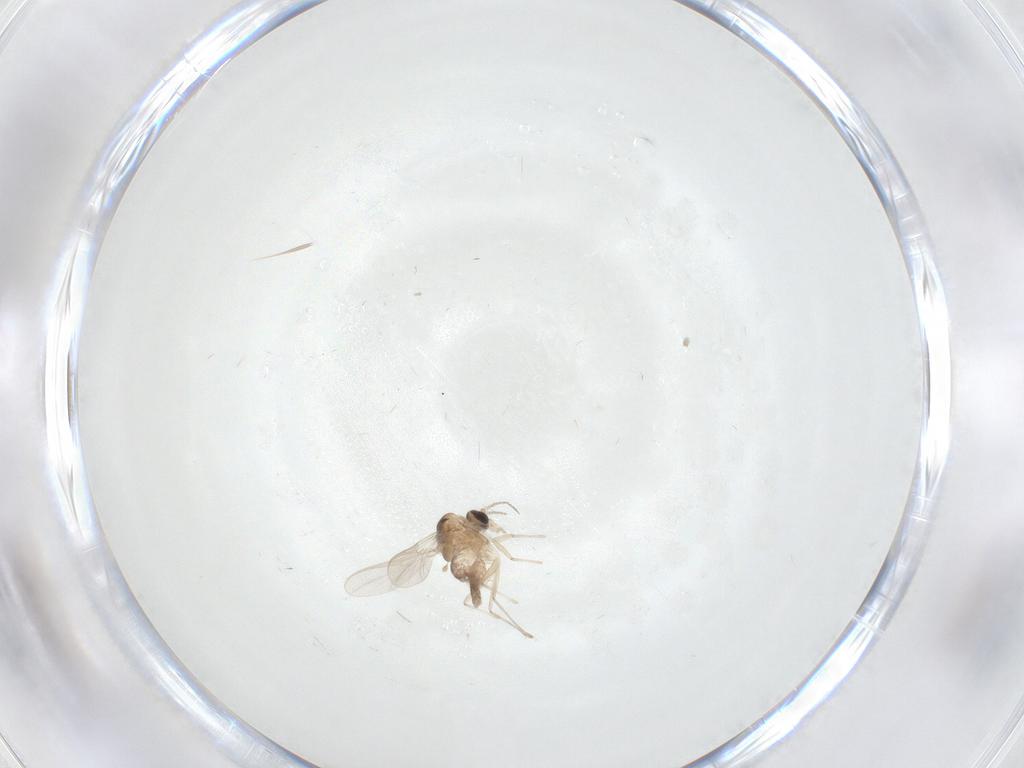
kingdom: Animalia
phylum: Arthropoda
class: Insecta
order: Diptera
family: Chironomidae
